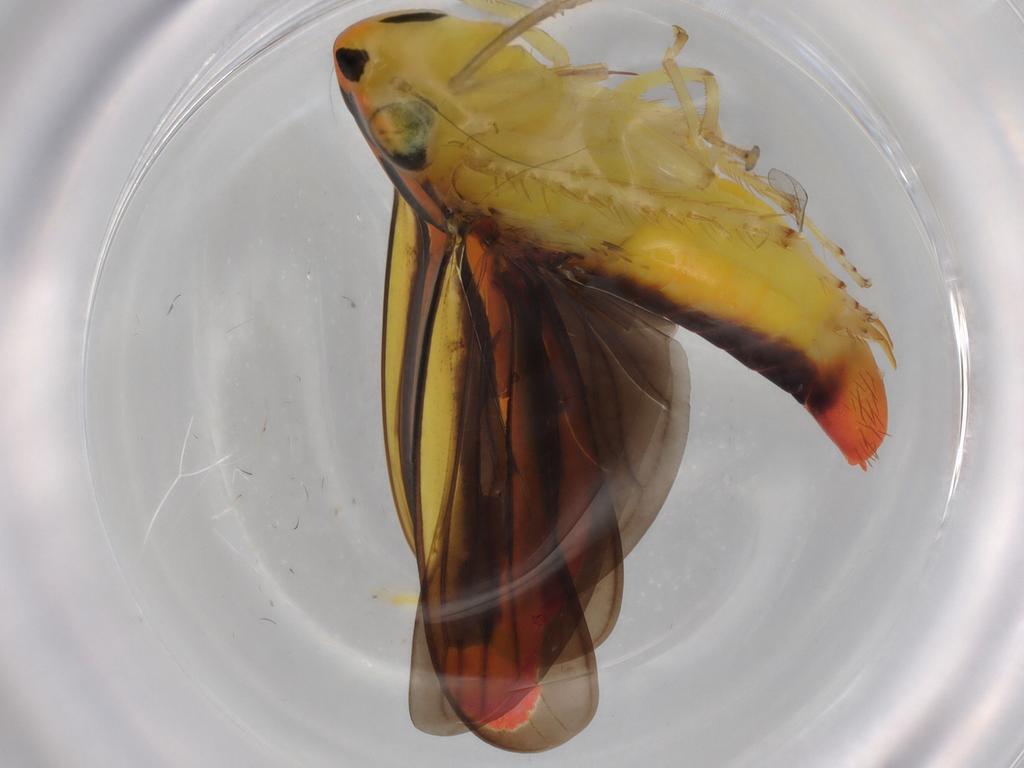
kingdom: Animalia
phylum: Arthropoda
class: Insecta
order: Hemiptera
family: Cicadellidae
